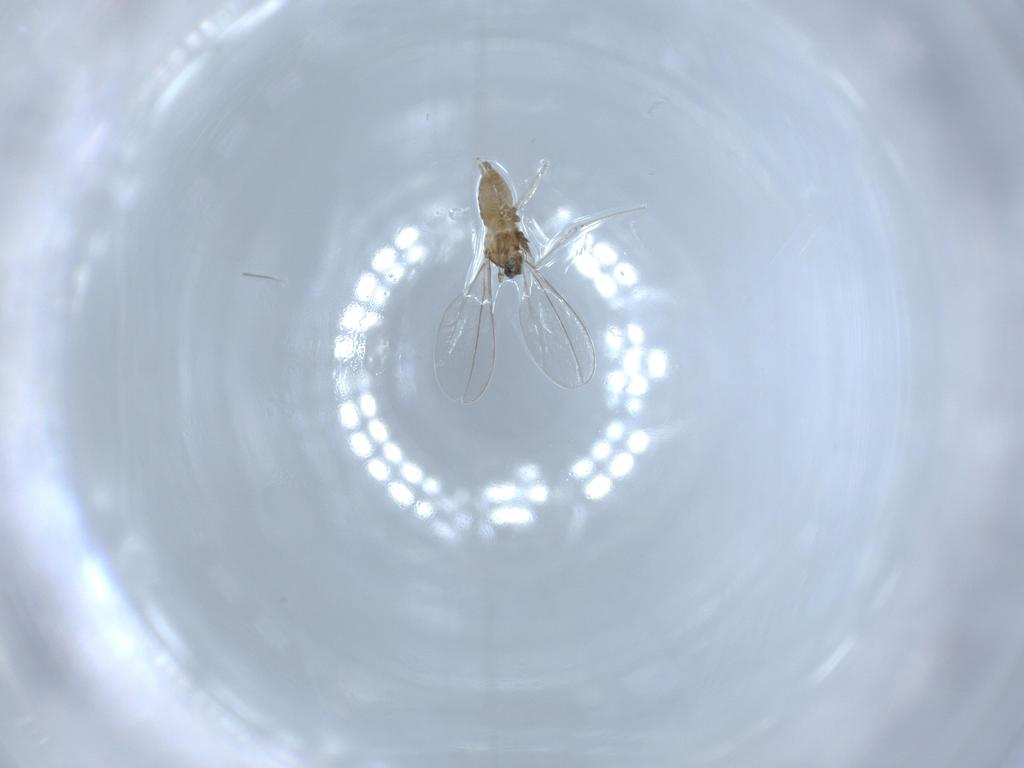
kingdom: Animalia
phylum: Arthropoda
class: Insecta
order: Diptera
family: Cecidomyiidae
